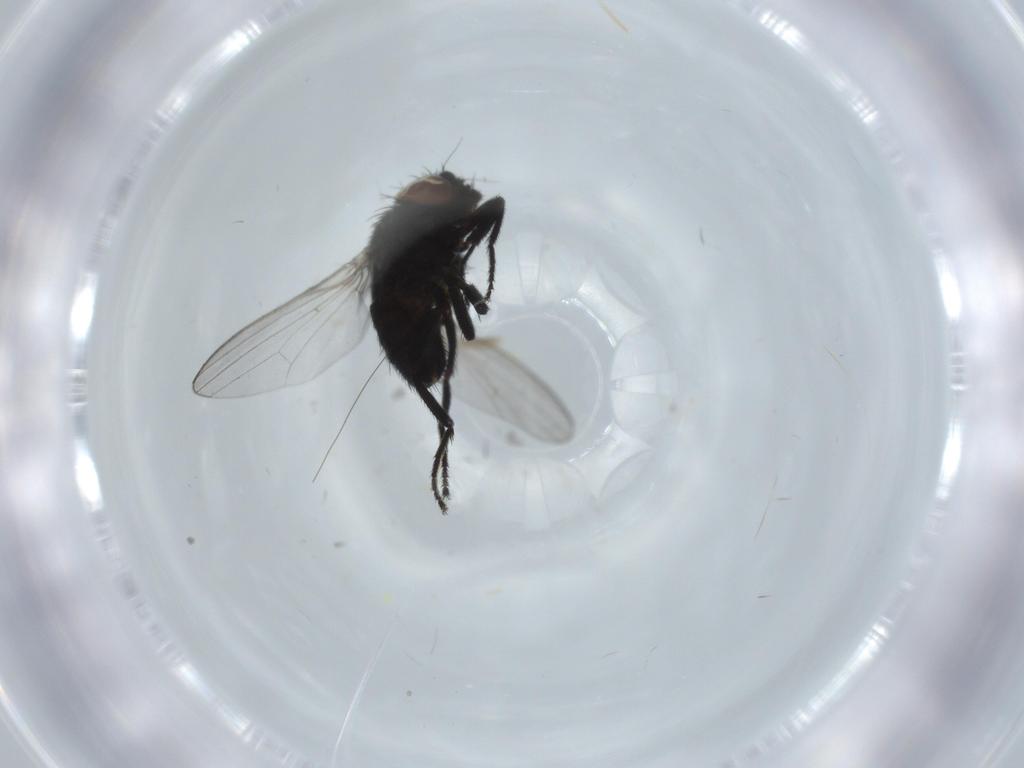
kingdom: Animalia
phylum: Arthropoda
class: Insecta
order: Diptera
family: Milichiidae
